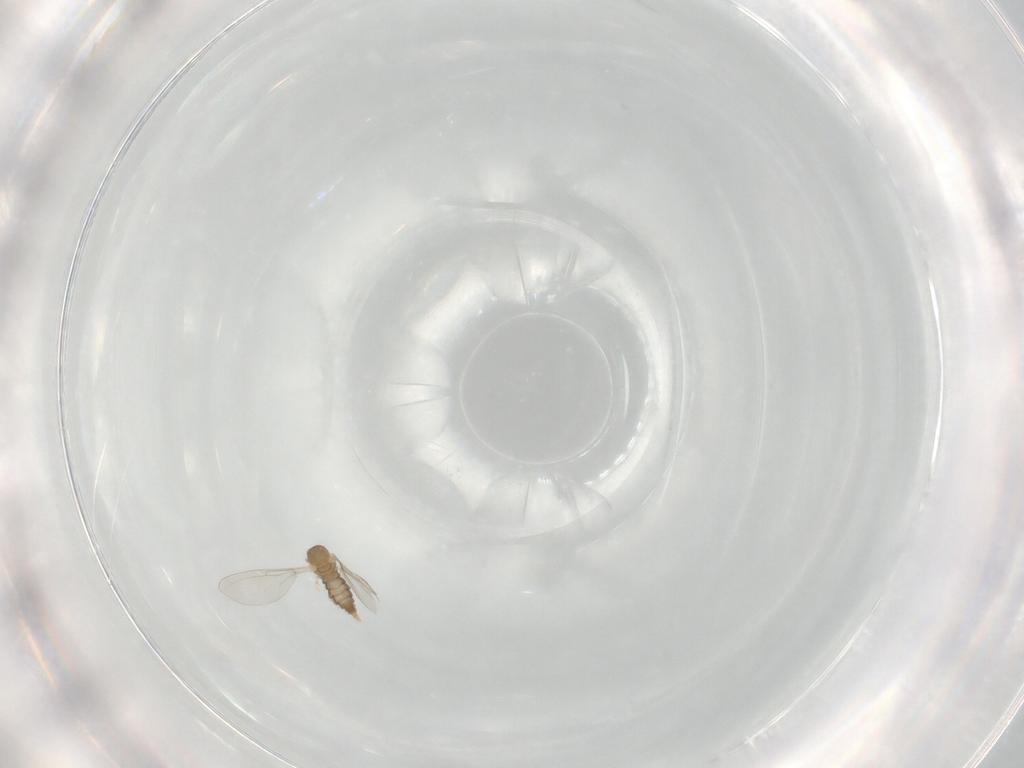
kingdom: Animalia
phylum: Arthropoda
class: Insecta
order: Diptera
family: Cecidomyiidae
